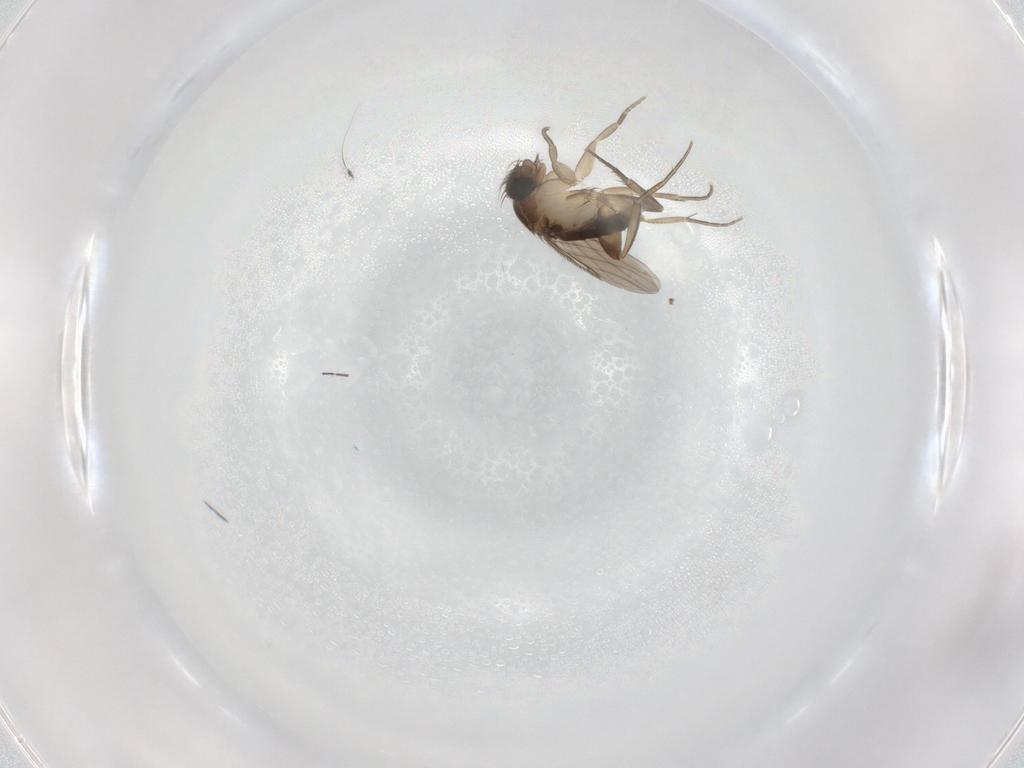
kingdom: Animalia
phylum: Arthropoda
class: Insecta
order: Diptera
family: Phoridae
